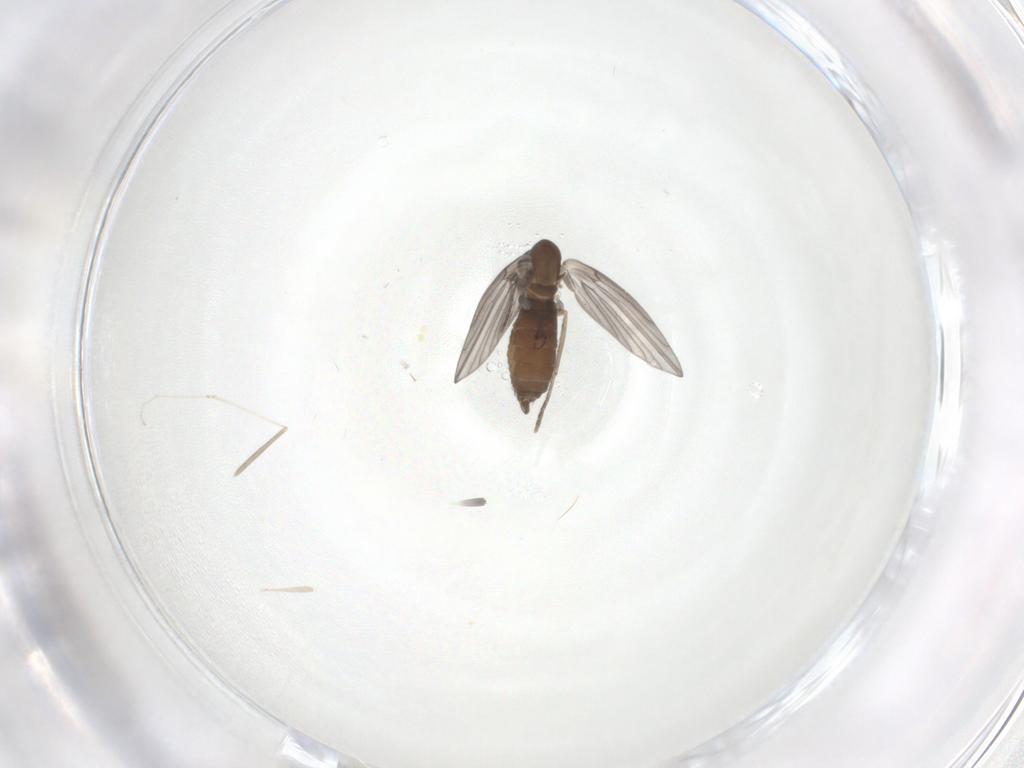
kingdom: Animalia
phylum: Arthropoda
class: Insecta
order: Diptera
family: Psychodidae
